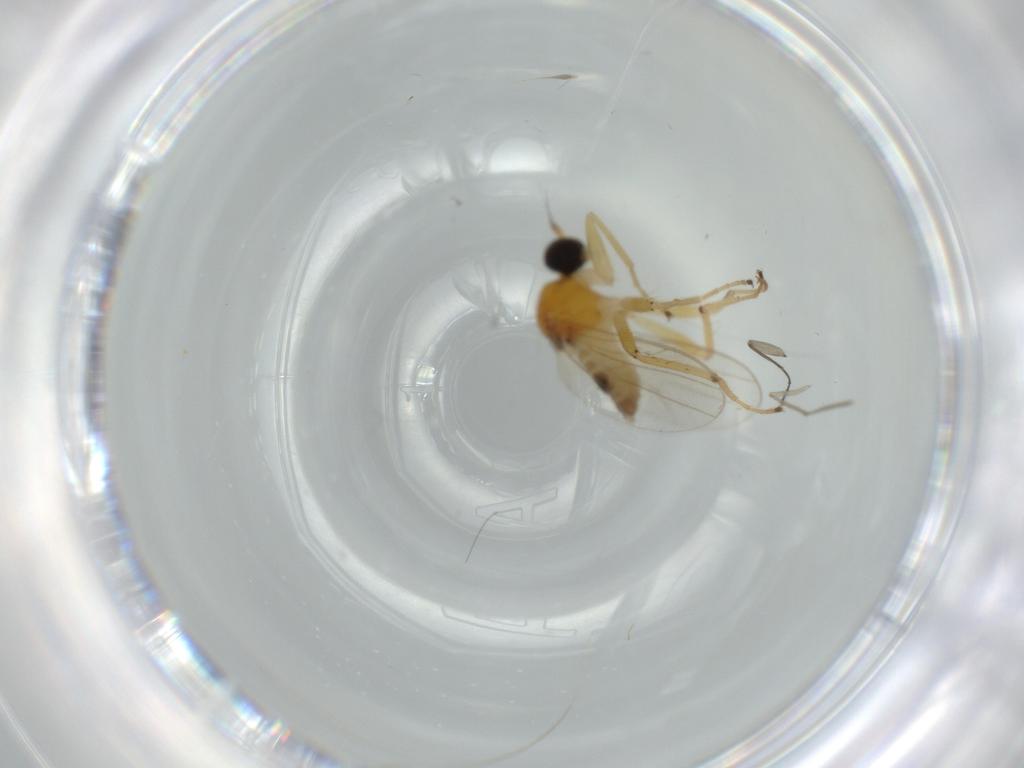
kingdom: Animalia
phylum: Arthropoda
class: Insecta
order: Diptera
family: Hybotidae
